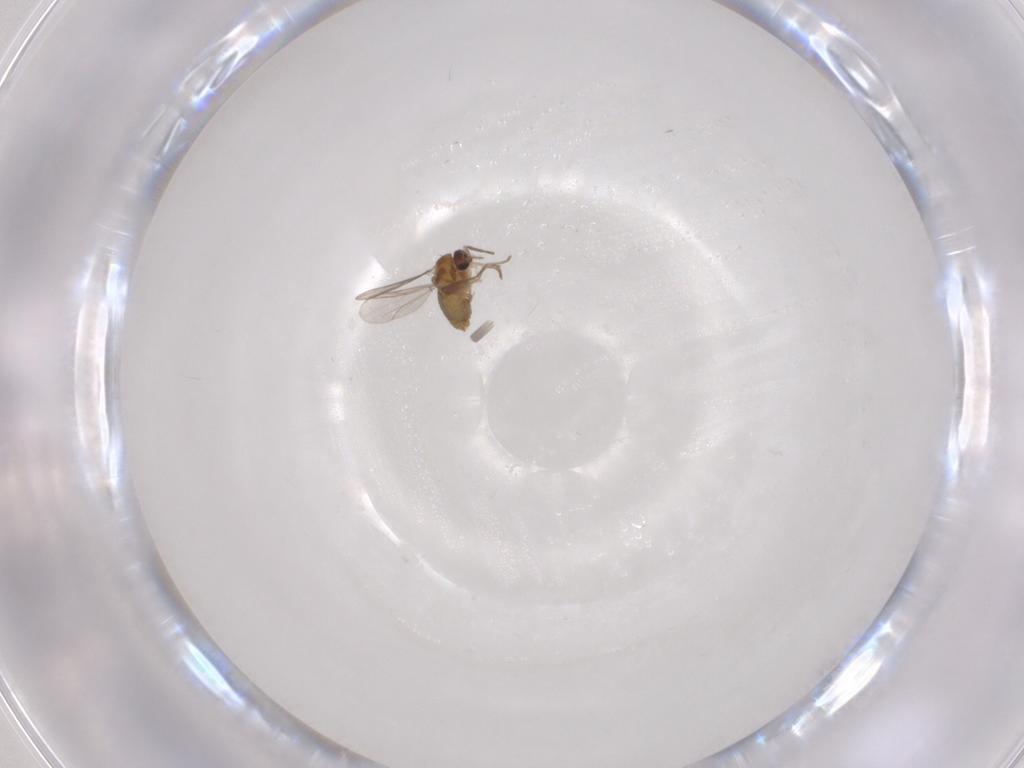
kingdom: Animalia
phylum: Arthropoda
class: Insecta
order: Diptera
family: Chironomidae
